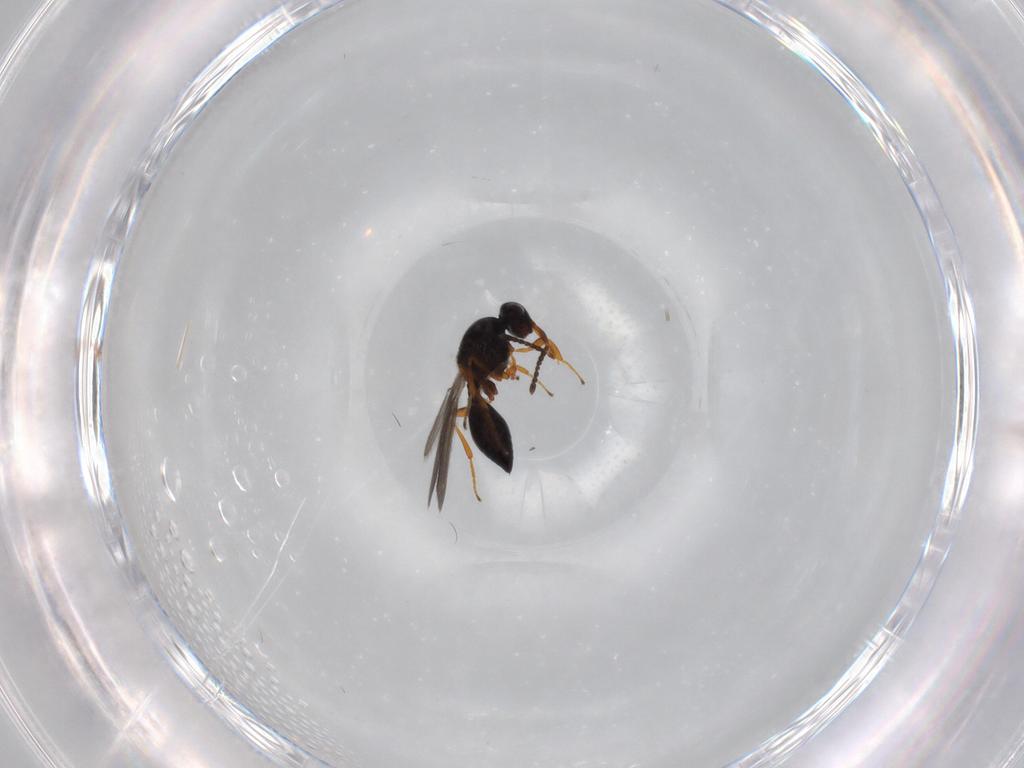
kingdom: Animalia
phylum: Arthropoda
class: Insecta
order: Hymenoptera
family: Platygastridae
